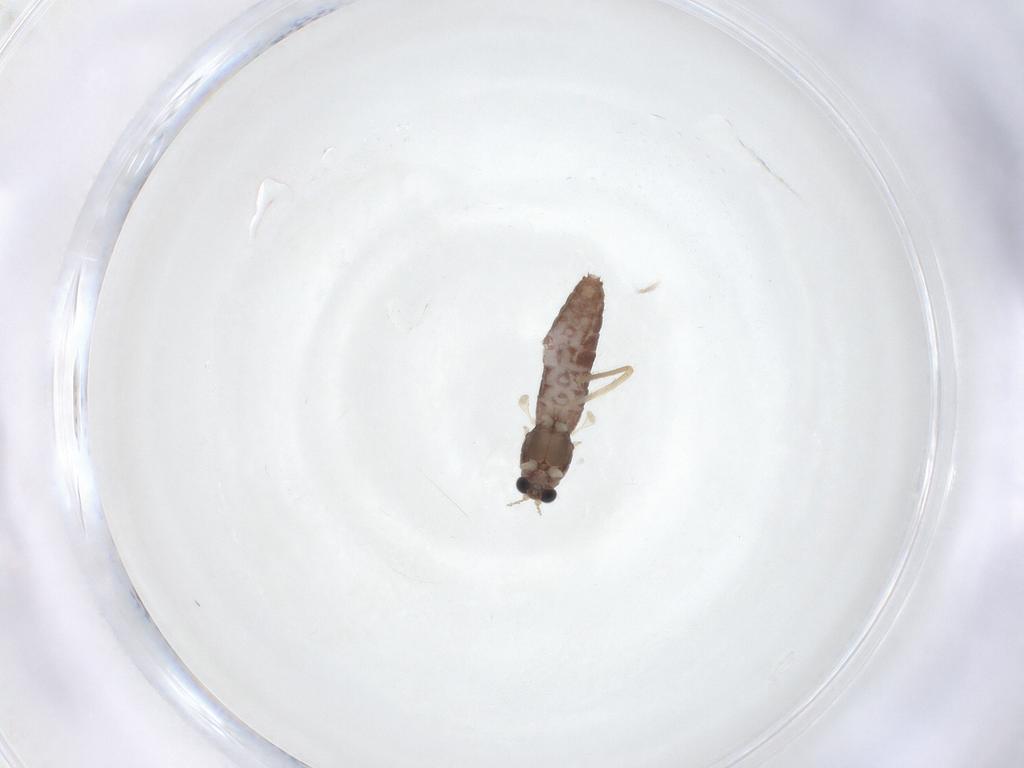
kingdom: Animalia
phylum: Arthropoda
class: Insecta
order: Diptera
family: Chironomidae
